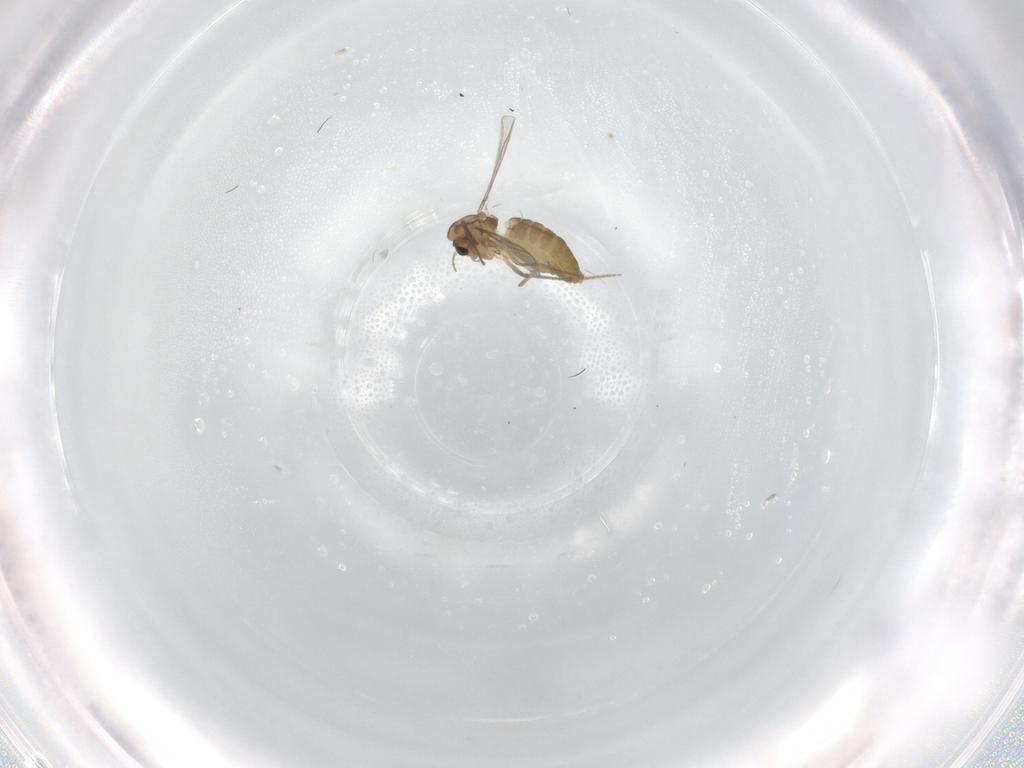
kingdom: Animalia
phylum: Arthropoda
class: Insecta
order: Diptera
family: Chironomidae
